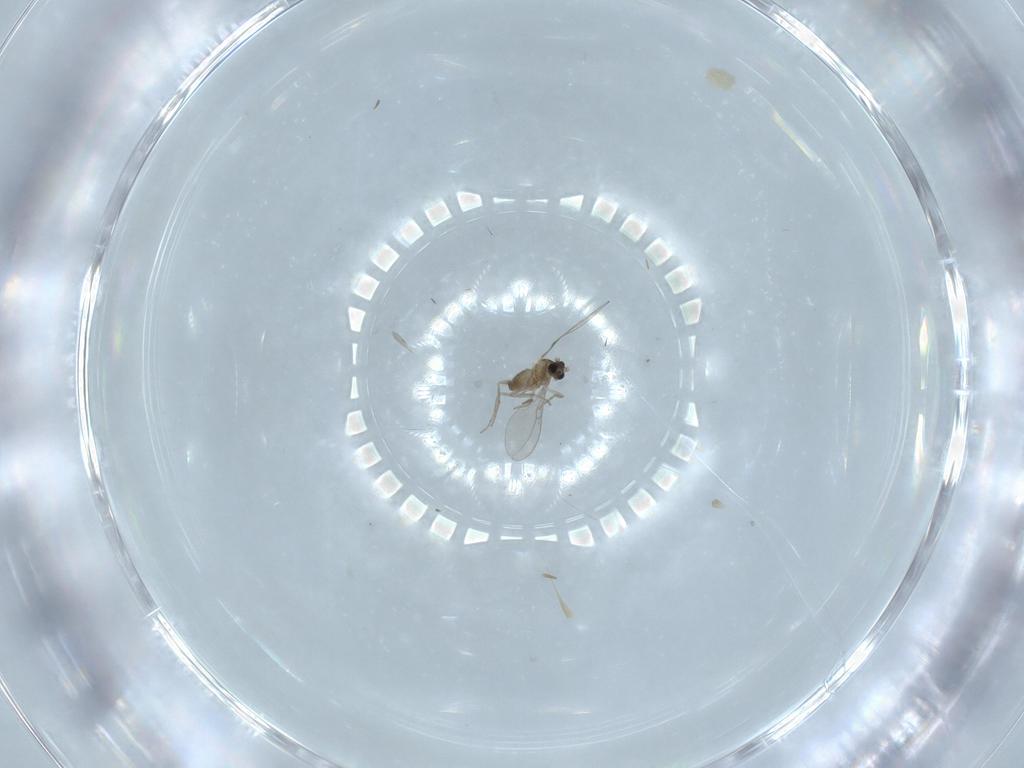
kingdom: Animalia
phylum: Arthropoda
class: Insecta
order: Diptera
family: Cecidomyiidae
